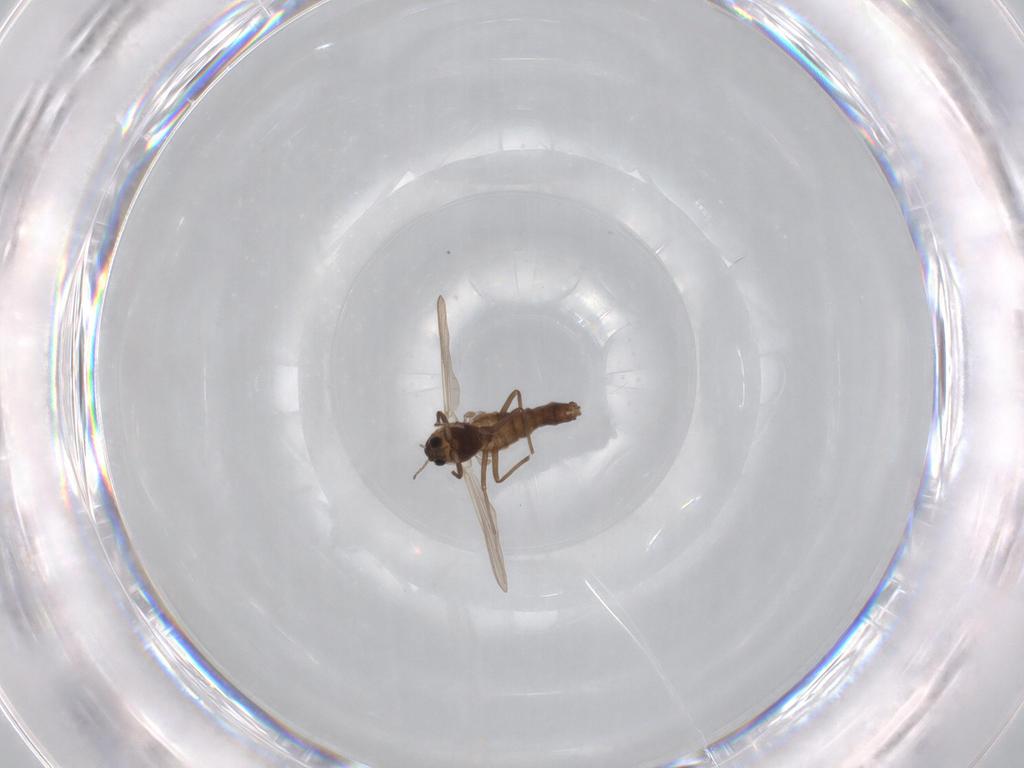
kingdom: Animalia
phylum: Arthropoda
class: Insecta
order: Diptera
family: Chironomidae
